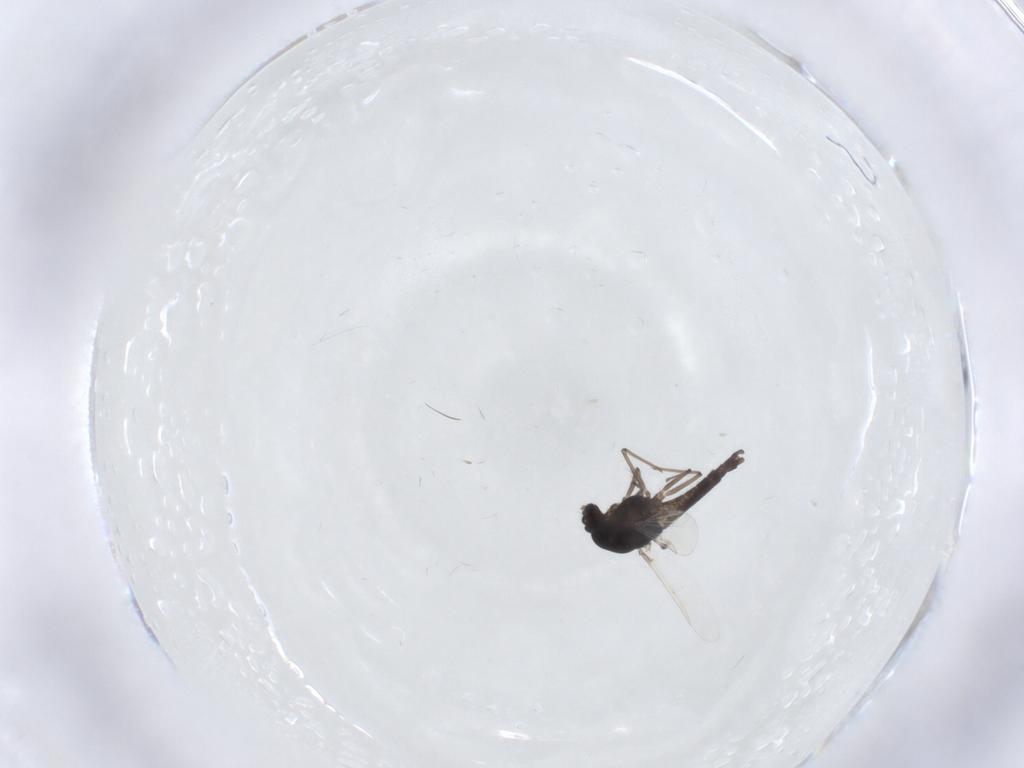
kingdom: Animalia
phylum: Arthropoda
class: Insecta
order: Diptera
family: Chironomidae
